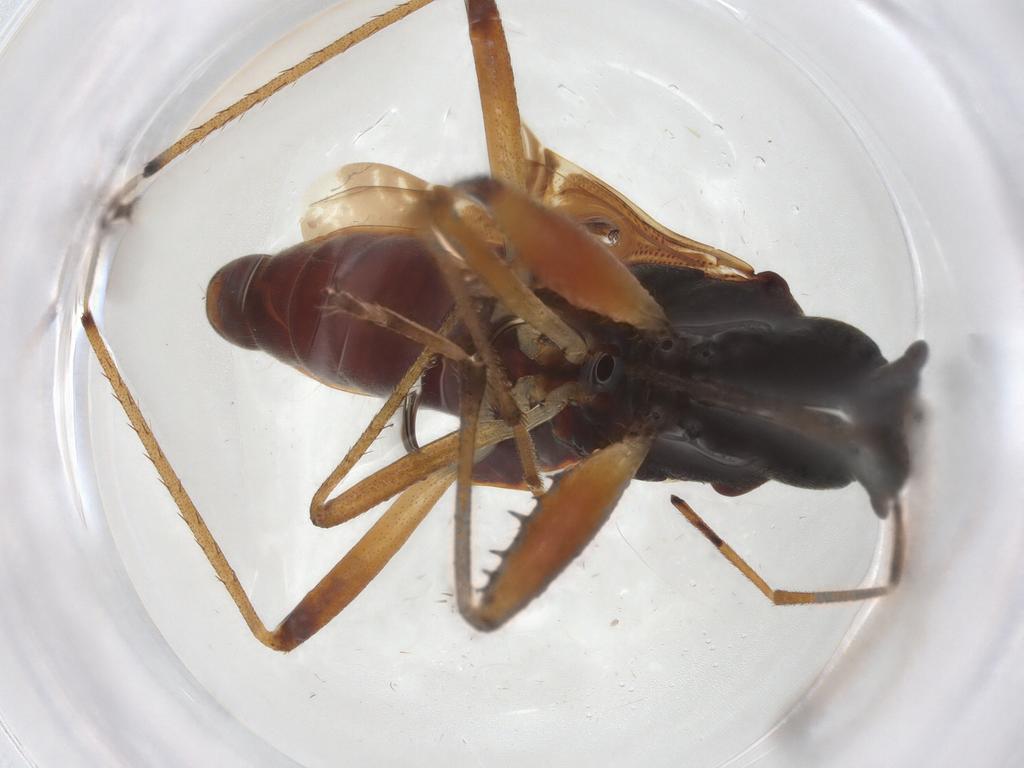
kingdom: Animalia
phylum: Arthropoda
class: Insecta
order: Hemiptera
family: Rhyparochromidae
